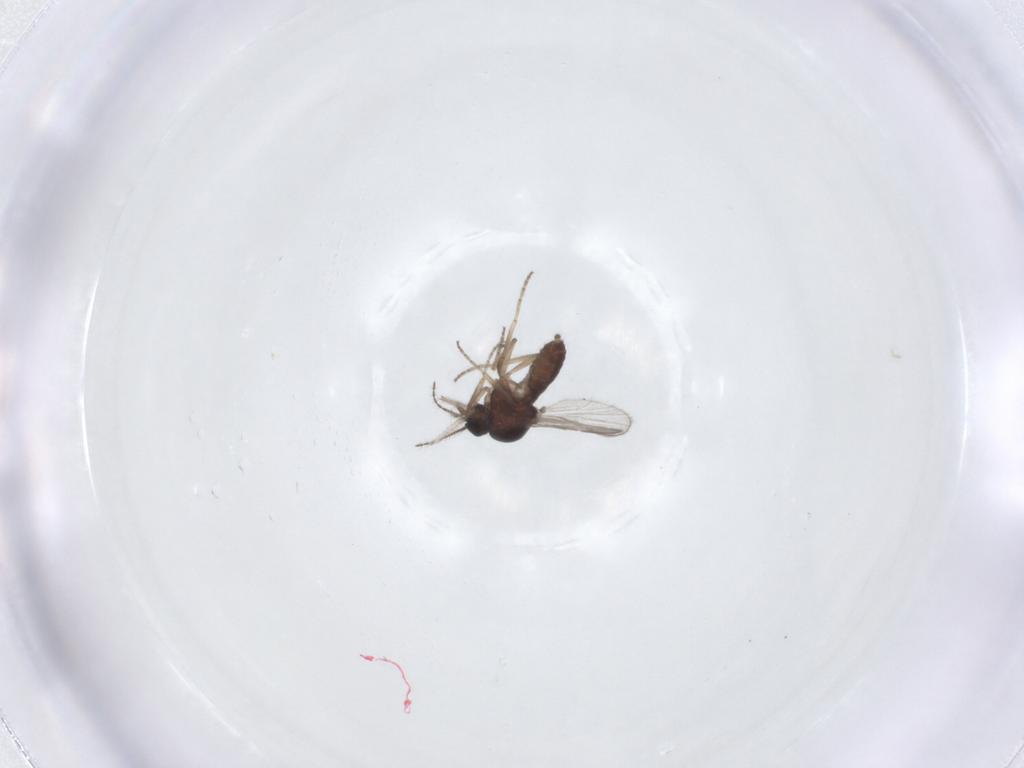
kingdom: Animalia
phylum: Arthropoda
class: Insecta
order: Diptera
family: Ceratopogonidae
